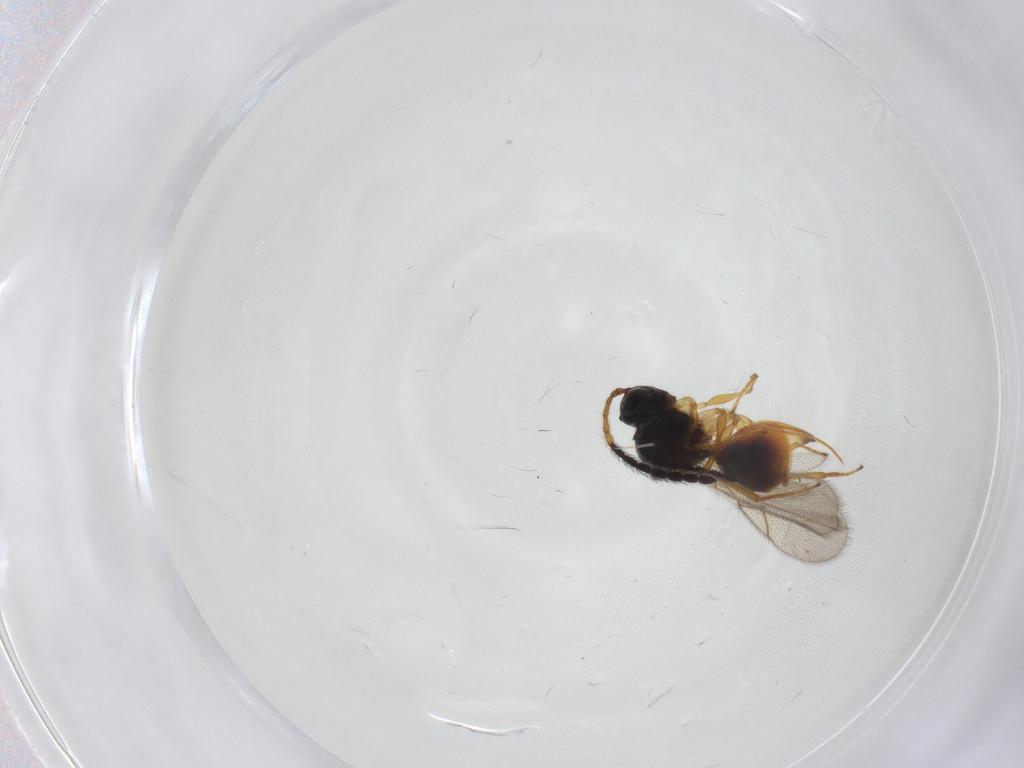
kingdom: Animalia
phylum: Arthropoda
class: Insecta
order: Hymenoptera
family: Figitidae
